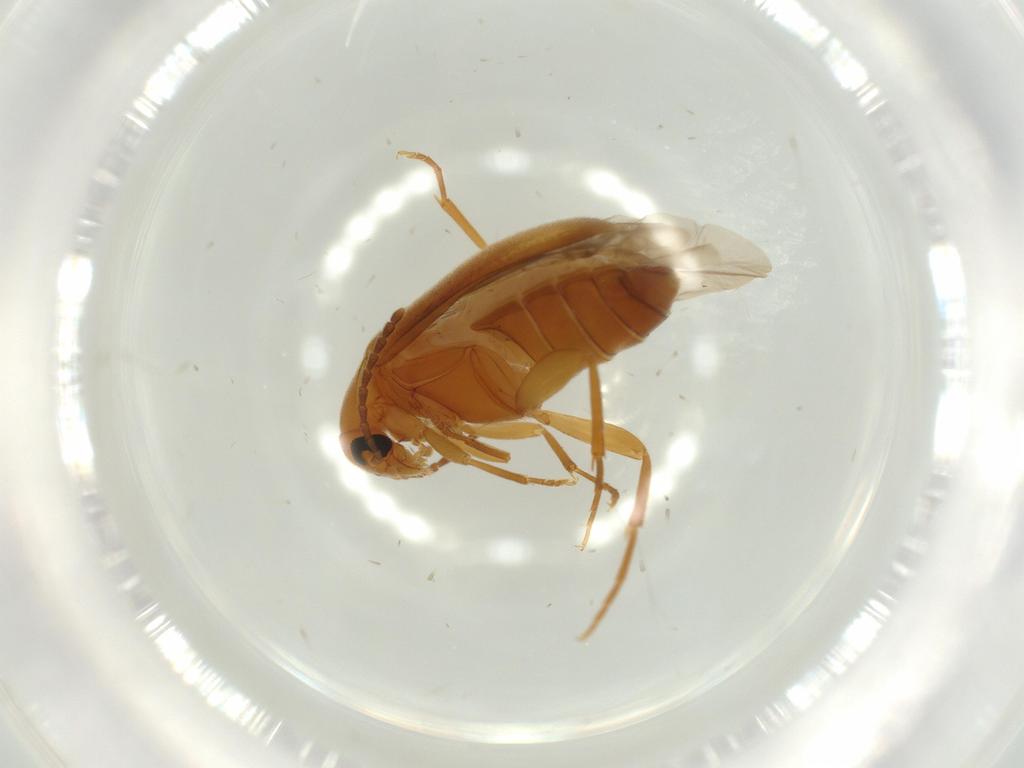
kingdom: Animalia
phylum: Arthropoda
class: Insecta
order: Coleoptera
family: Scraptiidae
